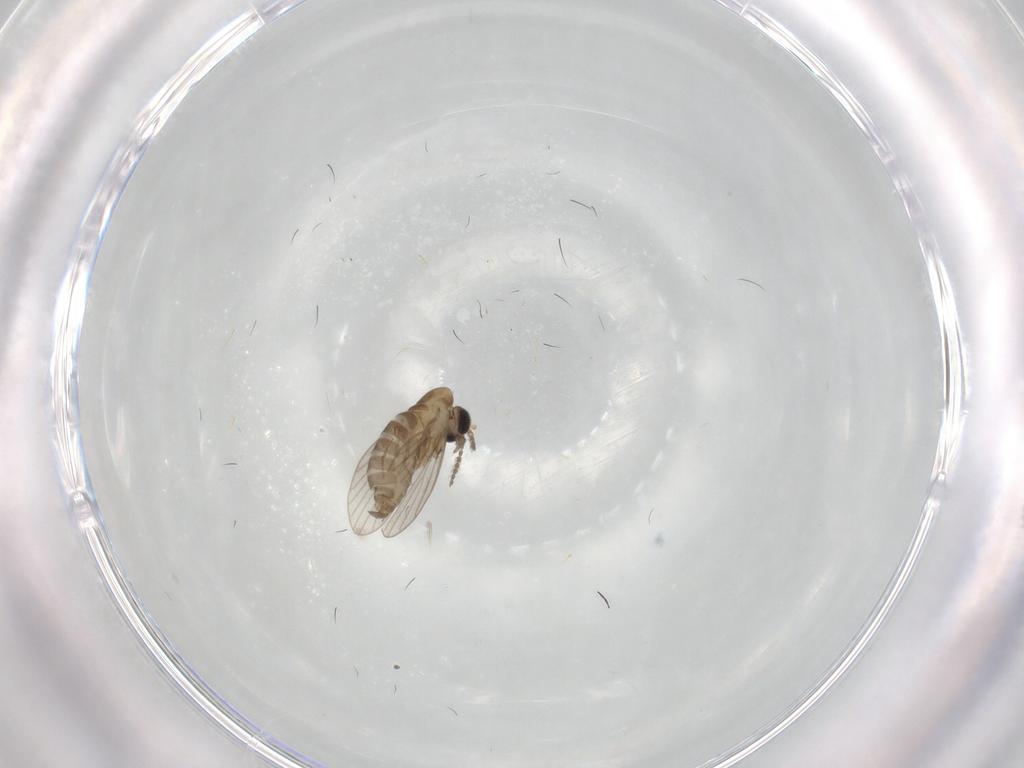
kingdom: Animalia
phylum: Arthropoda
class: Insecta
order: Diptera
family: Psychodidae
